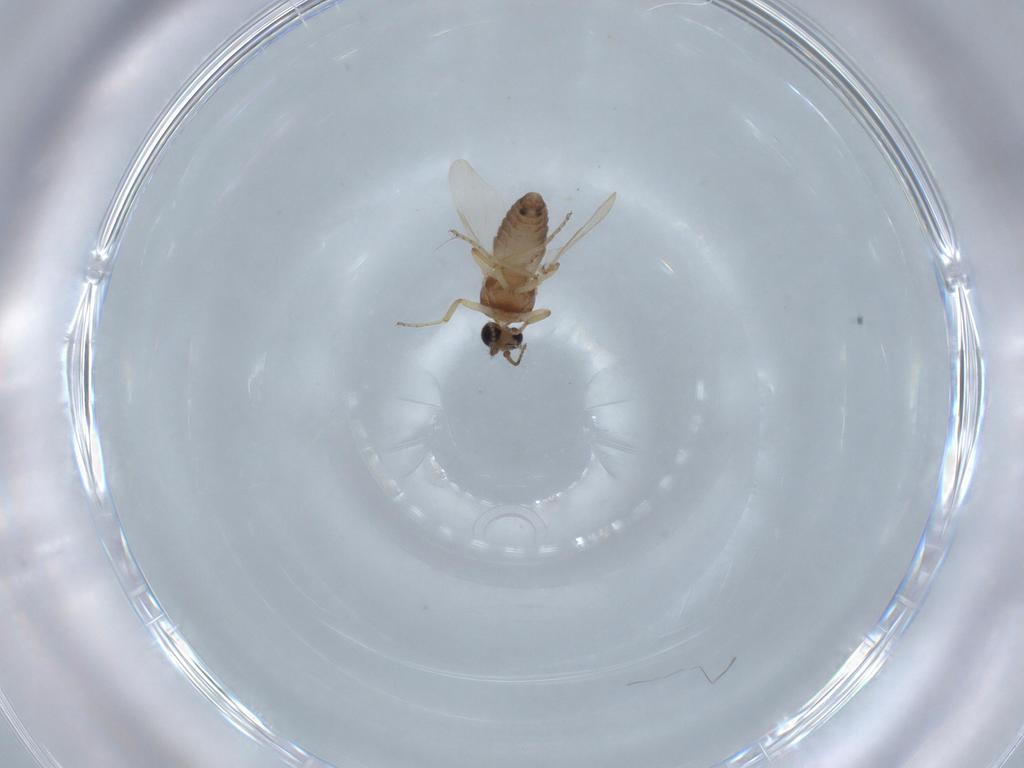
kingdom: Animalia
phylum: Arthropoda
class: Insecta
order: Diptera
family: Ceratopogonidae
